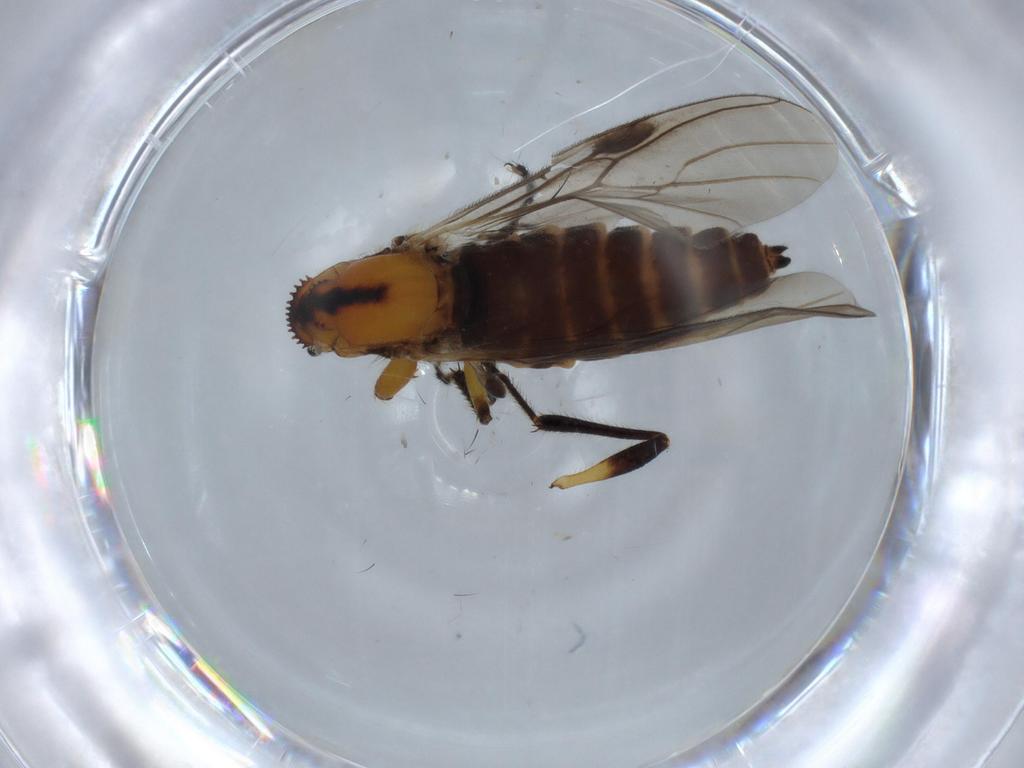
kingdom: Animalia
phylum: Arthropoda
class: Insecta
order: Diptera
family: Bibionidae
